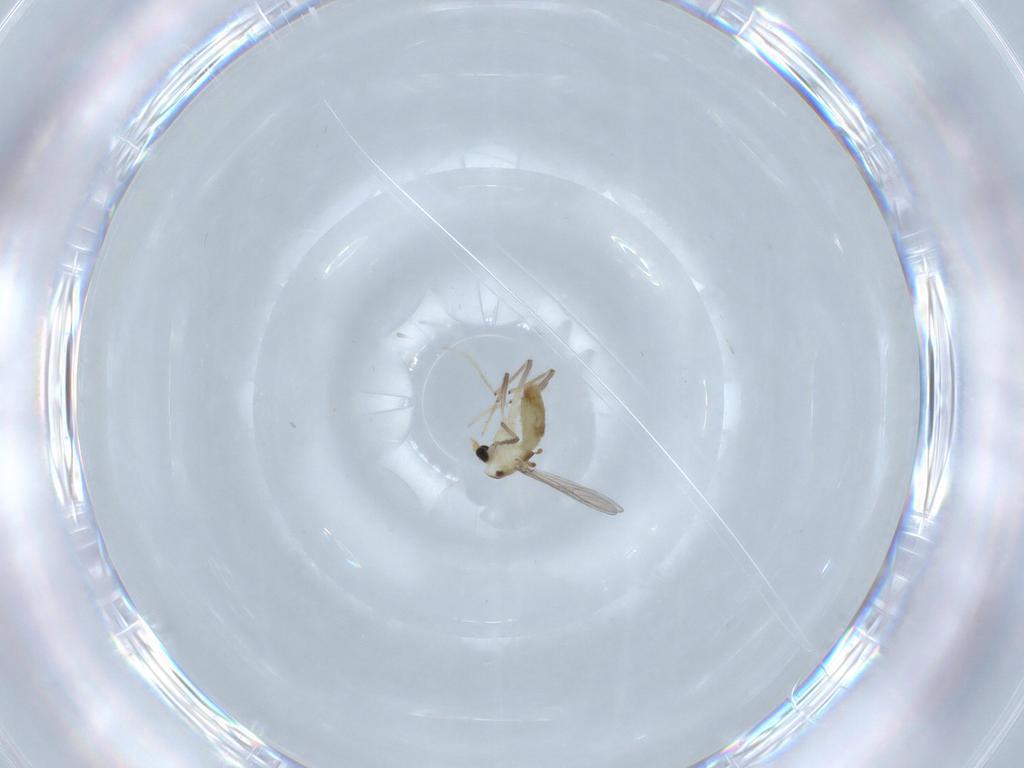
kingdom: Animalia
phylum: Arthropoda
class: Insecta
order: Diptera
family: Chironomidae
